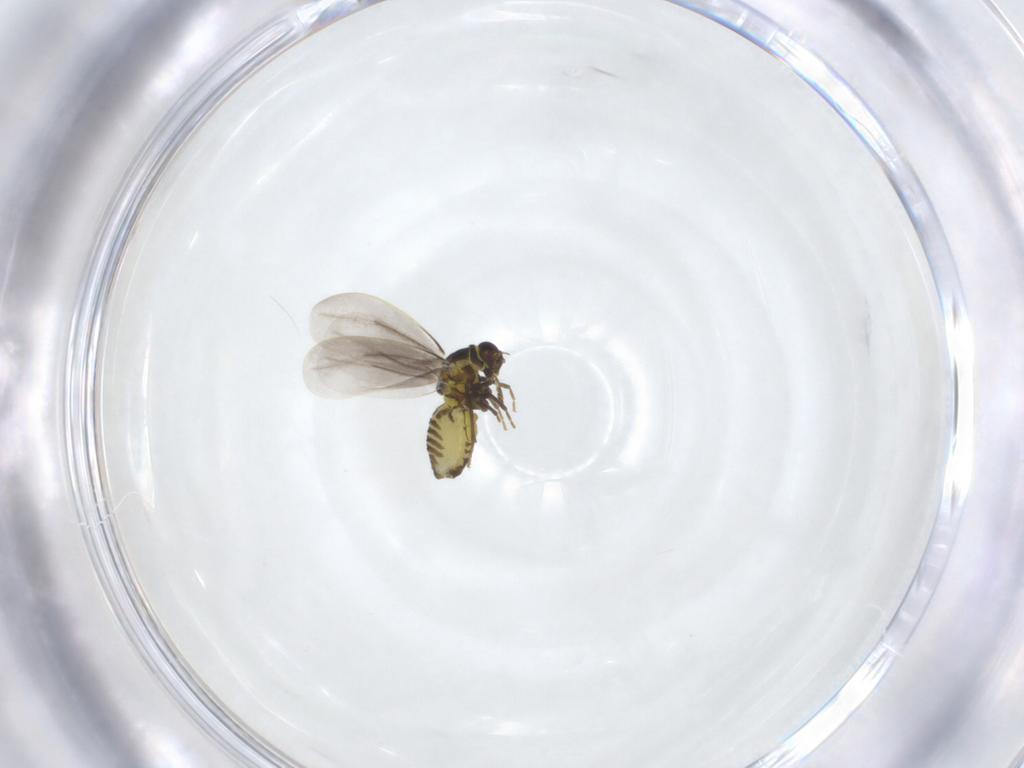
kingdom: Animalia
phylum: Arthropoda
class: Insecta
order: Hemiptera
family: Aleyrodidae
